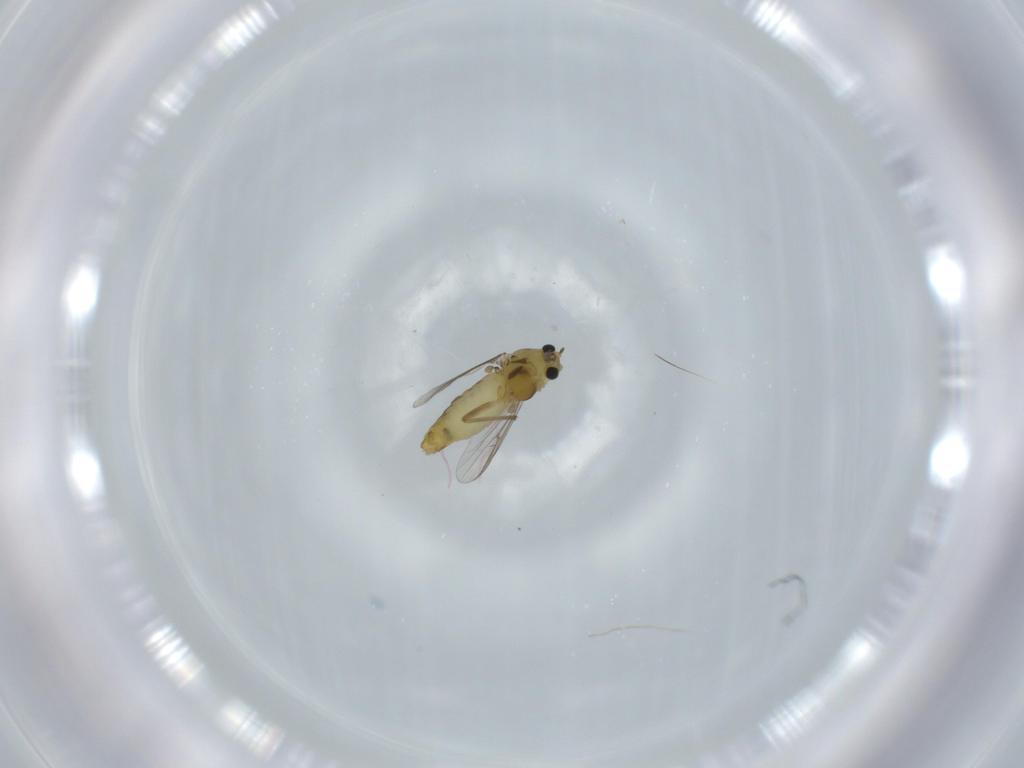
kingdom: Animalia
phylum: Arthropoda
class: Insecta
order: Diptera
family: Chironomidae
